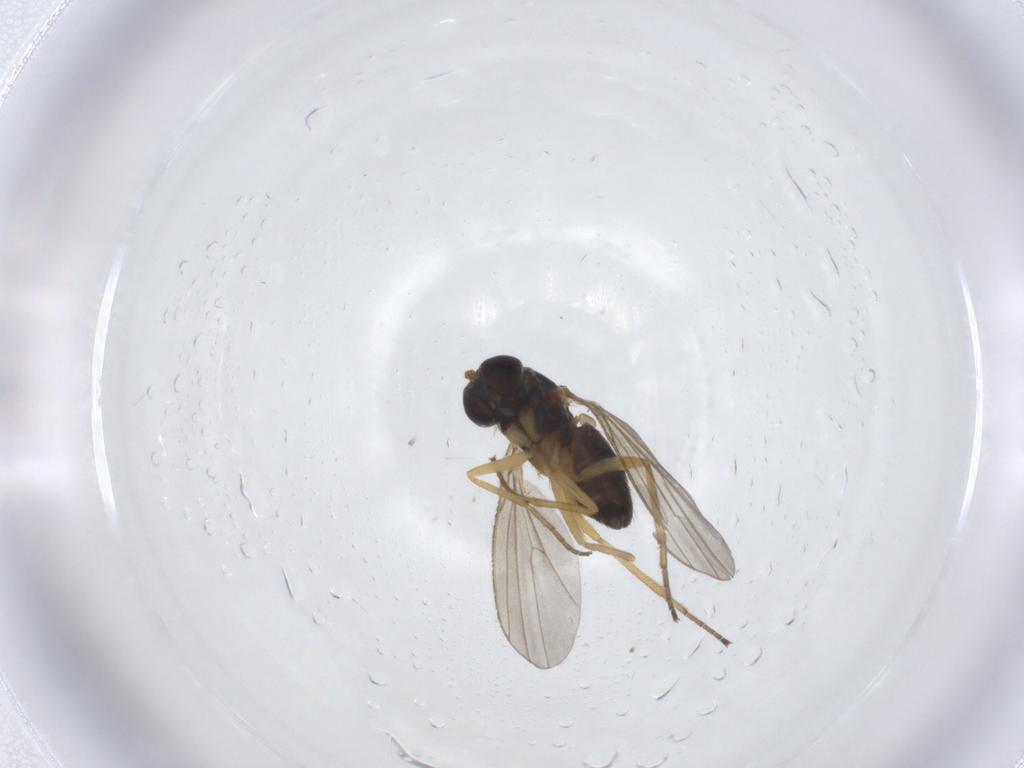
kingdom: Animalia
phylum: Arthropoda
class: Insecta
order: Diptera
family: Dolichopodidae
